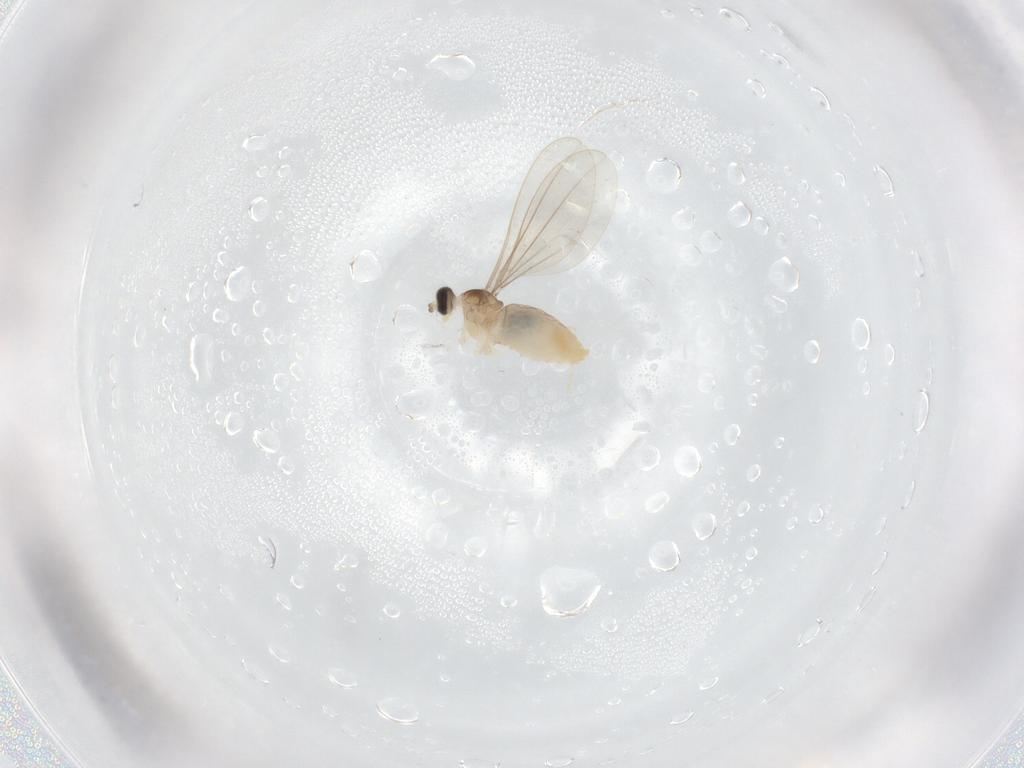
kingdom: Animalia
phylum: Arthropoda
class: Insecta
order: Diptera
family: Cecidomyiidae
